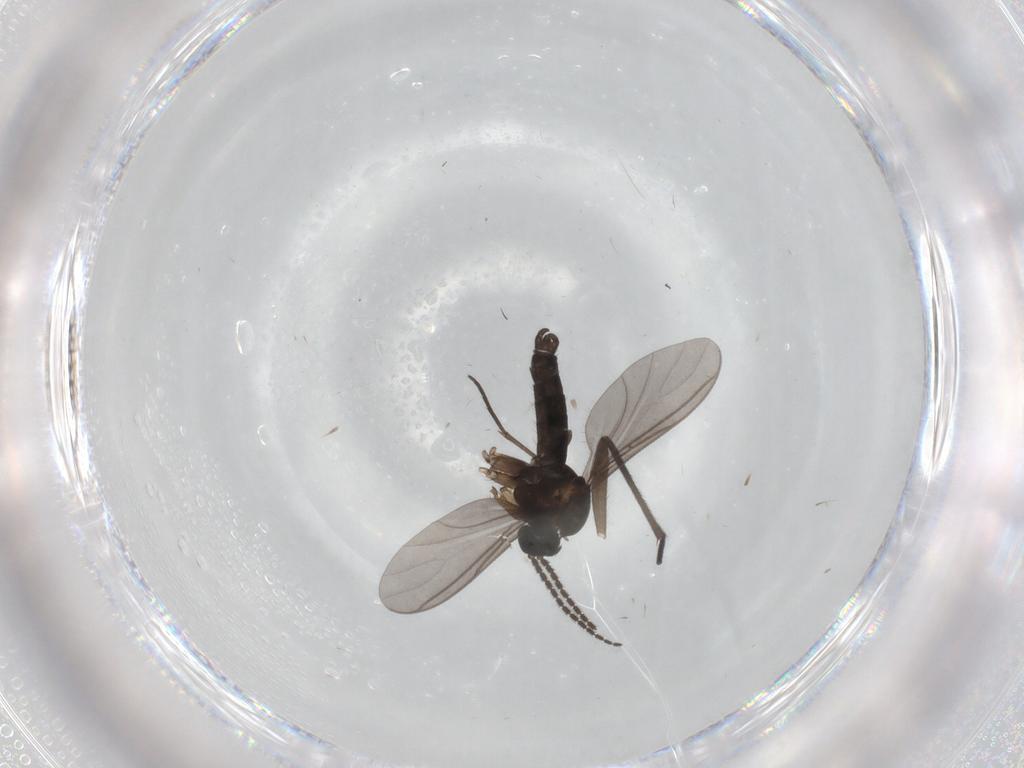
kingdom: Animalia
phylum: Arthropoda
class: Insecta
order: Diptera
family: Sciaridae
